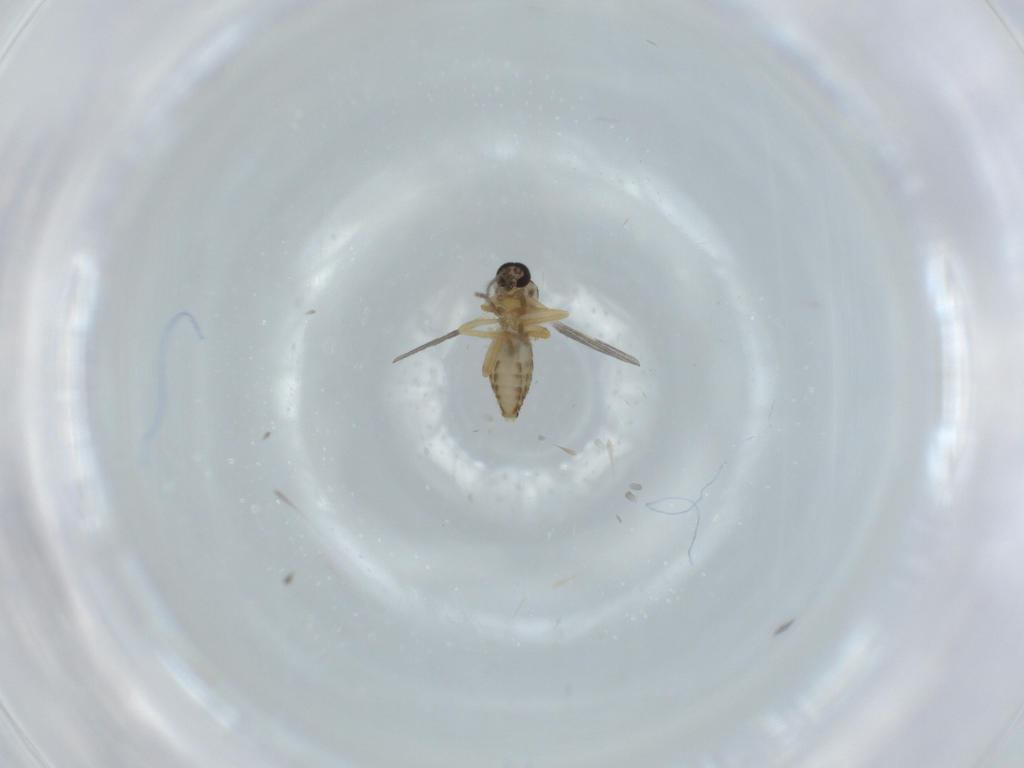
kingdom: Animalia
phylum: Arthropoda
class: Insecta
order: Diptera
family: Ceratopogonidae
